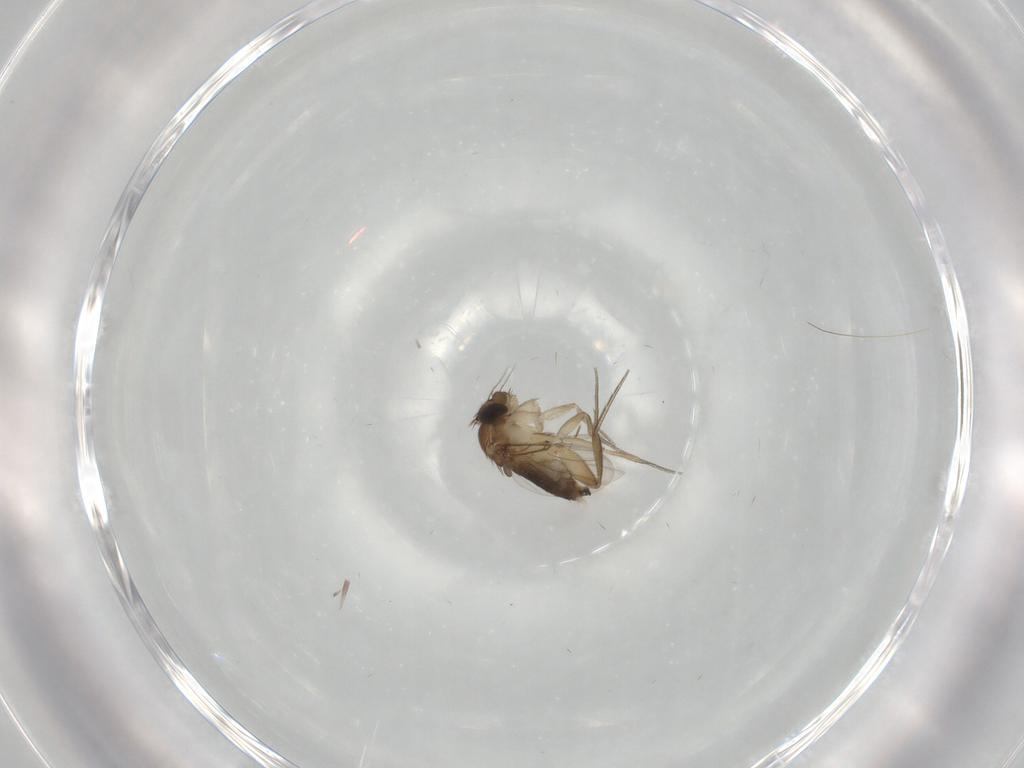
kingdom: Animalia
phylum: Arthropoda
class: Insecta
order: Diptera
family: Phoridae
